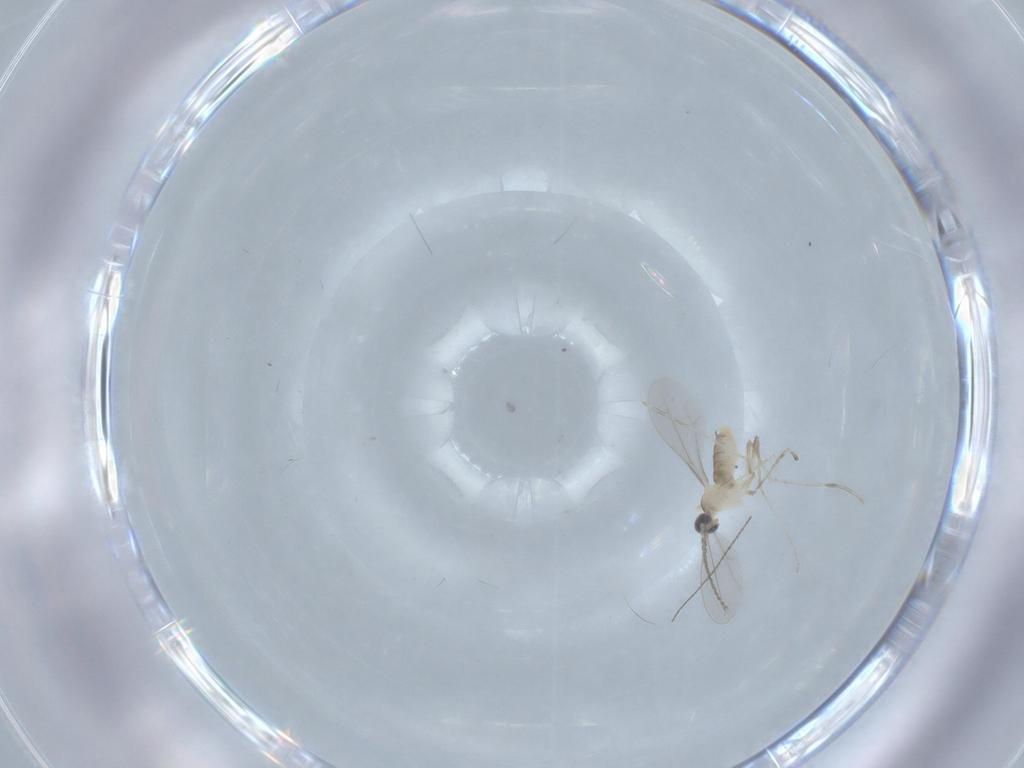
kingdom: Animalia
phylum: Arthropoda
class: Insecta
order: Diptera
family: Cecidomyiidae
